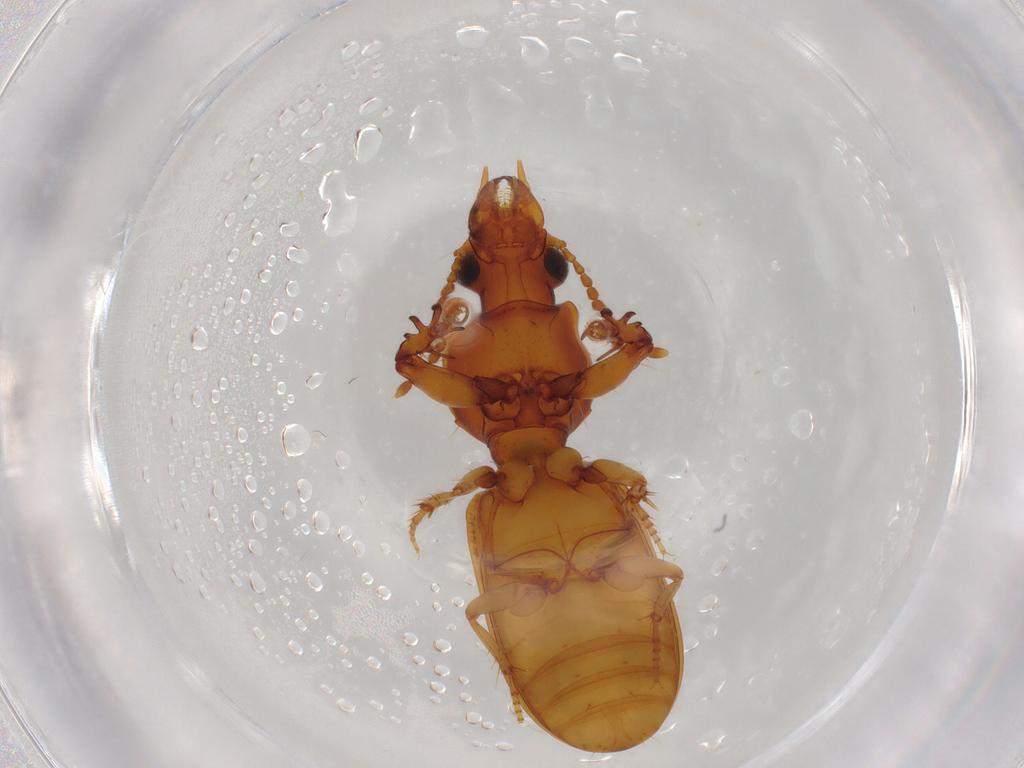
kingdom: Animalia
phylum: Arthropoda
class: Insecta
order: Coleoptera
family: Carabidae
